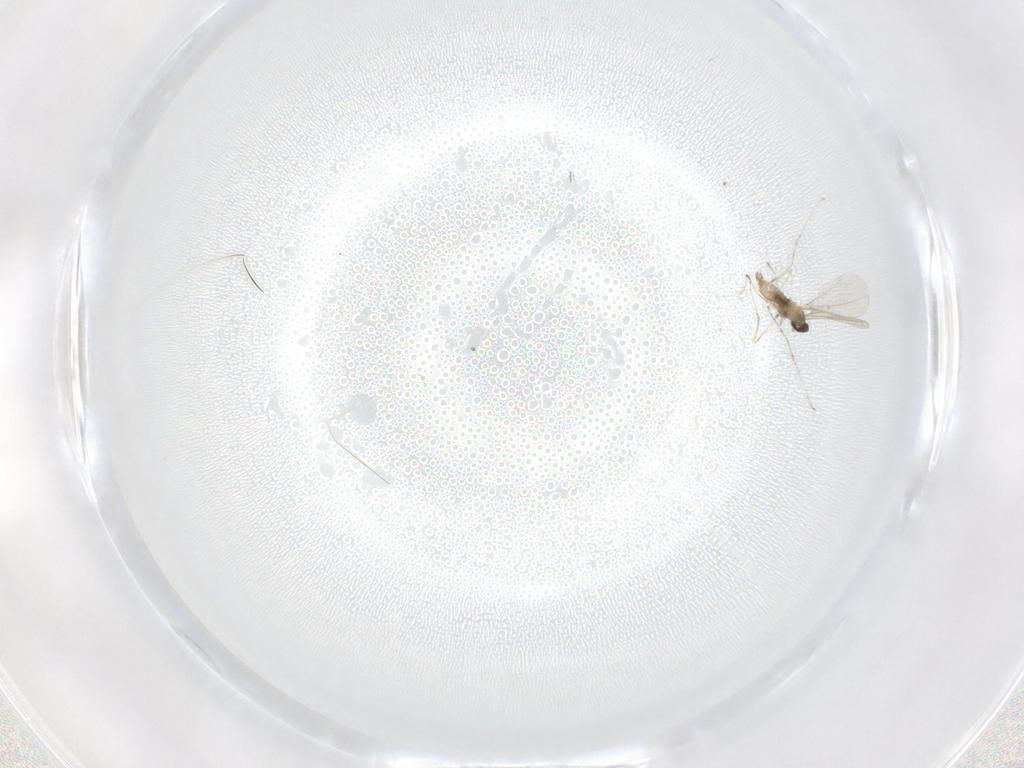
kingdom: Animalia
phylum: Arthropoda
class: Insecta
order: Diptera
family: Cecidomyiidae
